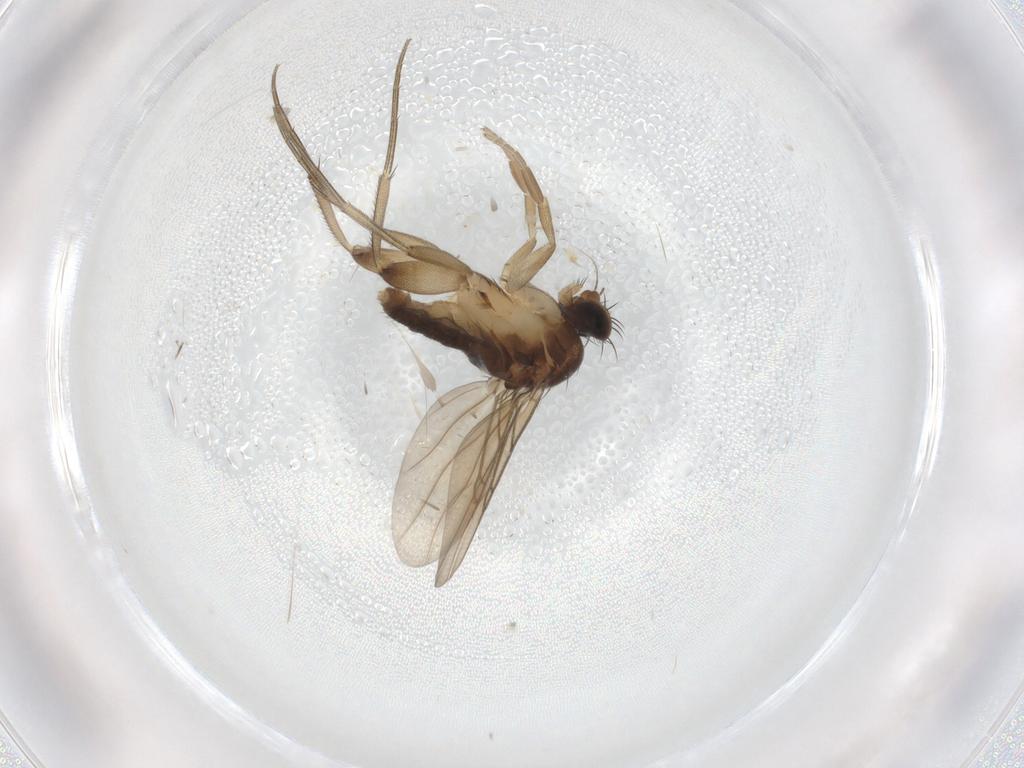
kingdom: Animalia
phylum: Arthropoda
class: Insecta
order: Diptera
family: Phoridae
